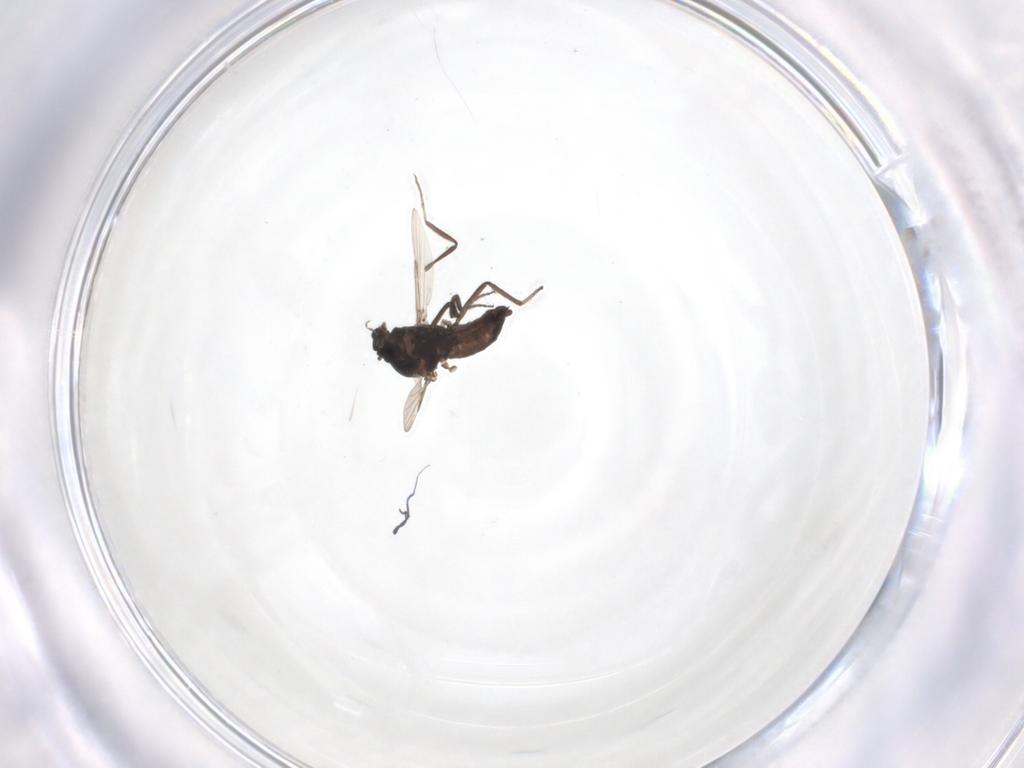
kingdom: Animalia
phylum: Arthropoda
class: Insecta
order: Diptera
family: Ceratopogonidae
